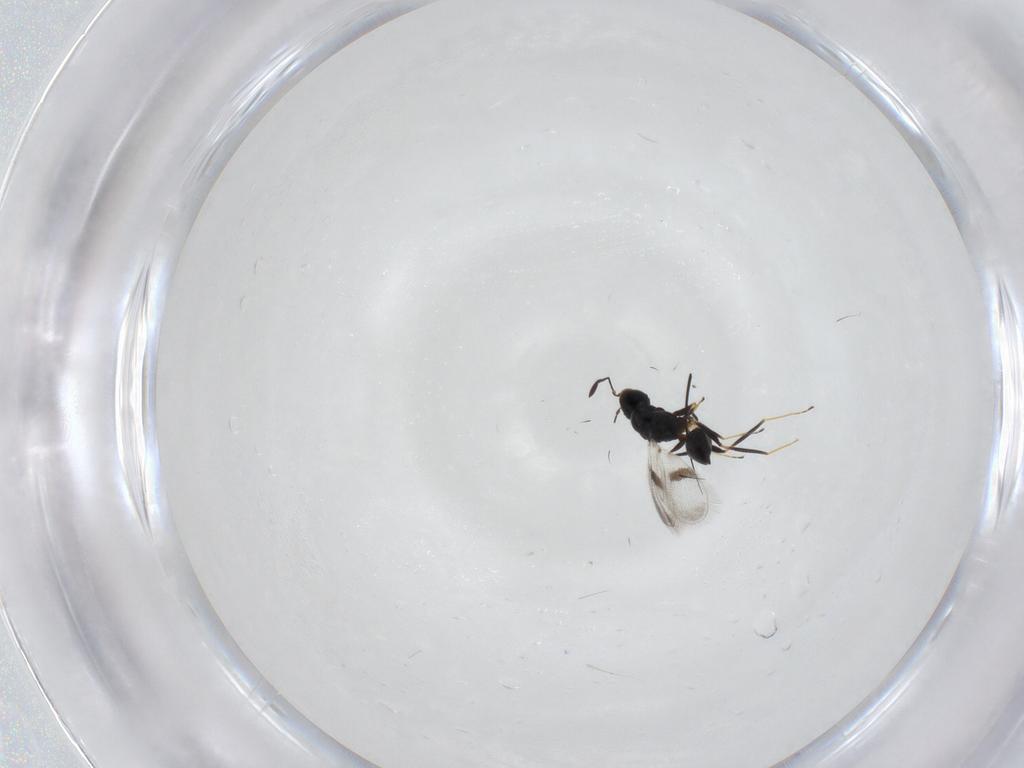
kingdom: Animalia
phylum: Arthropoda
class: Insecta
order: Hymenoptera
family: Mymaridae
